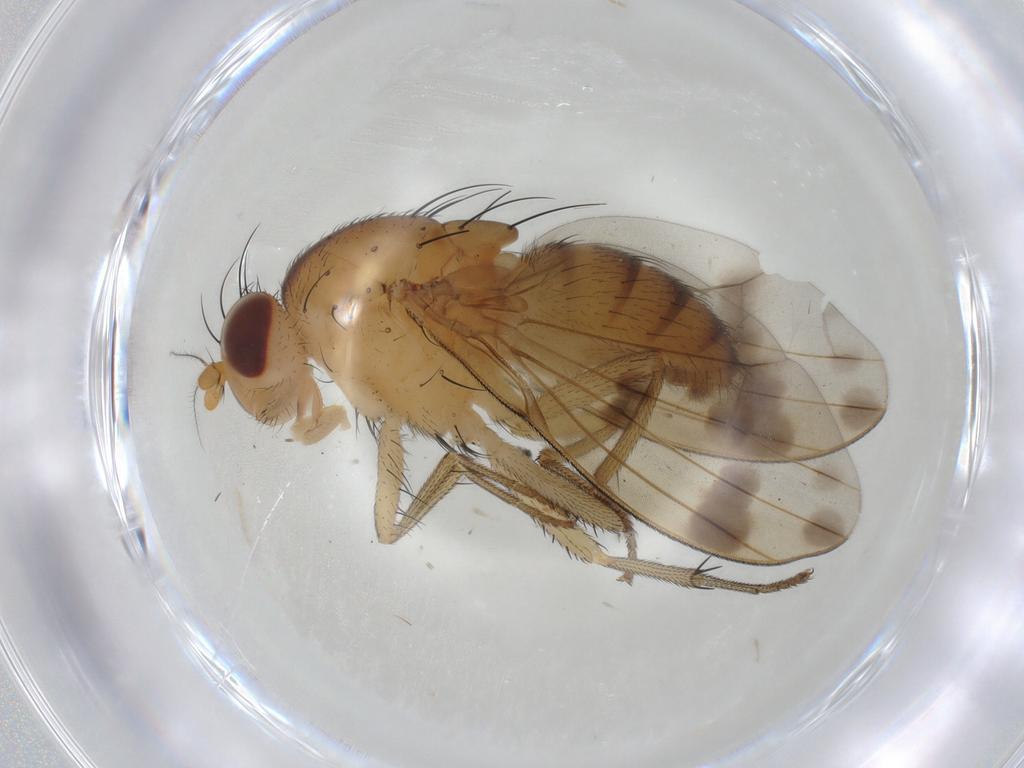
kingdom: Animalia
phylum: Arthropoda
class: Insecta
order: Diptera
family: Lauxaniidae
